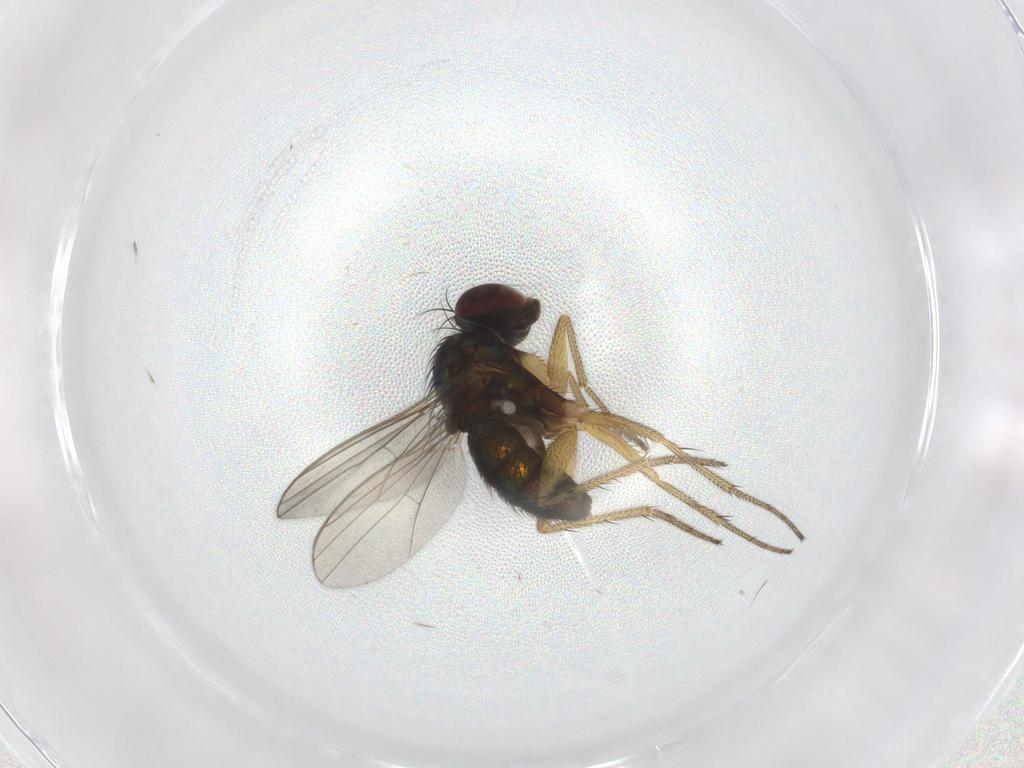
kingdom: Animalia
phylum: Arthropoda
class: Insecta
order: Diptera
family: Dolichopodidae
